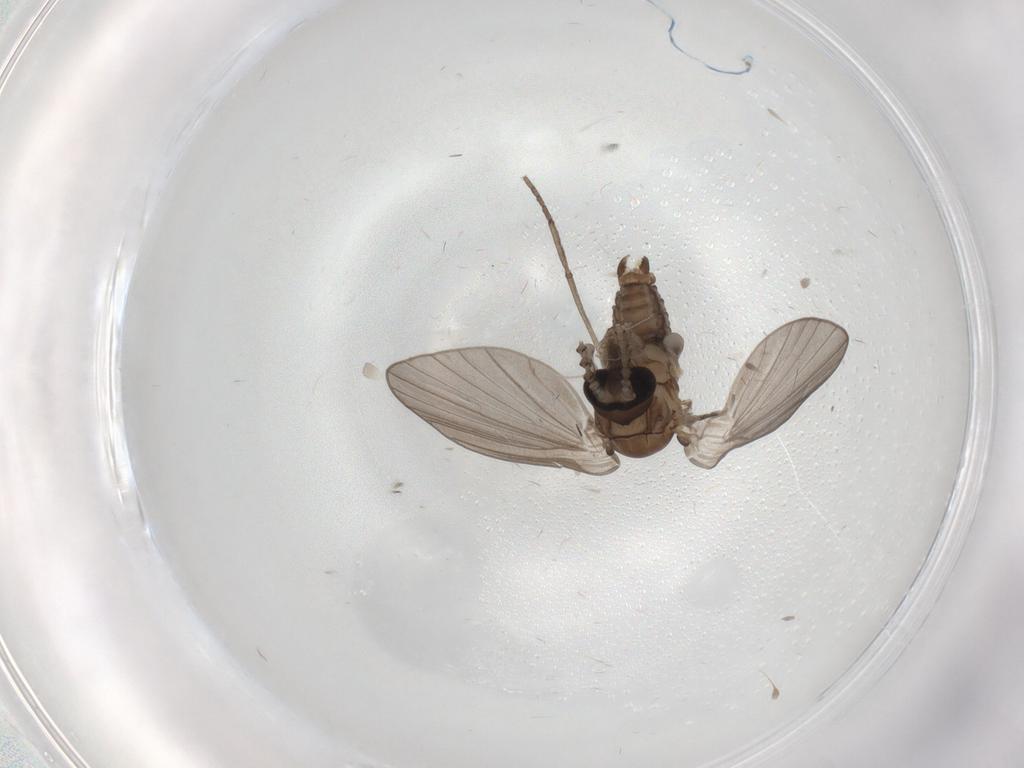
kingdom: Animalia
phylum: Arthropoda
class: Insecta
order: Diptera
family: Psychodidae
